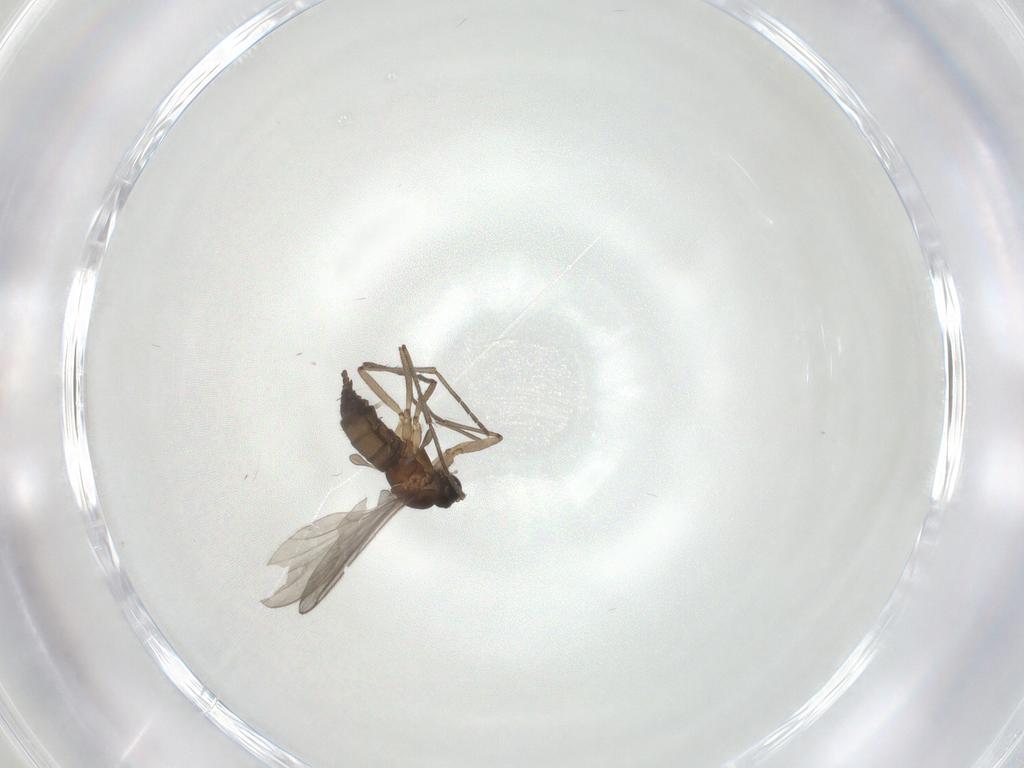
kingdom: Animalia
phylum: Arthropoda
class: Insecta
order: Diptera
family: Sciaridae
